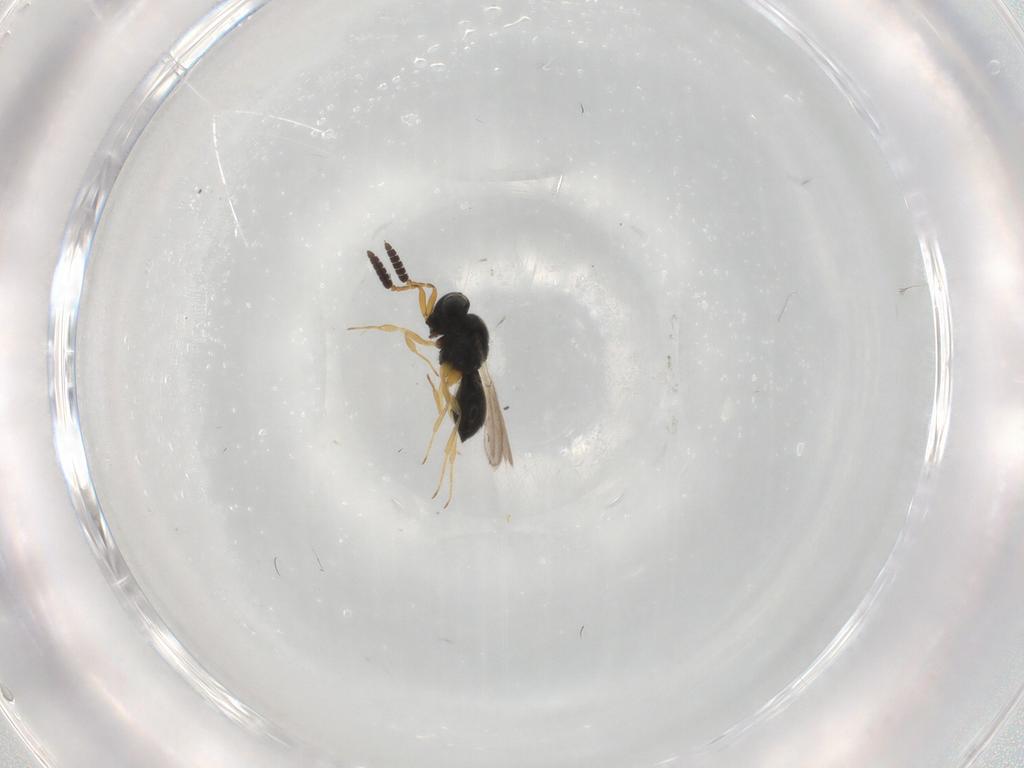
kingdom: Animalia
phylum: Arthropoda
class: Insecta
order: Hymenoptera
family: Scelionidae
